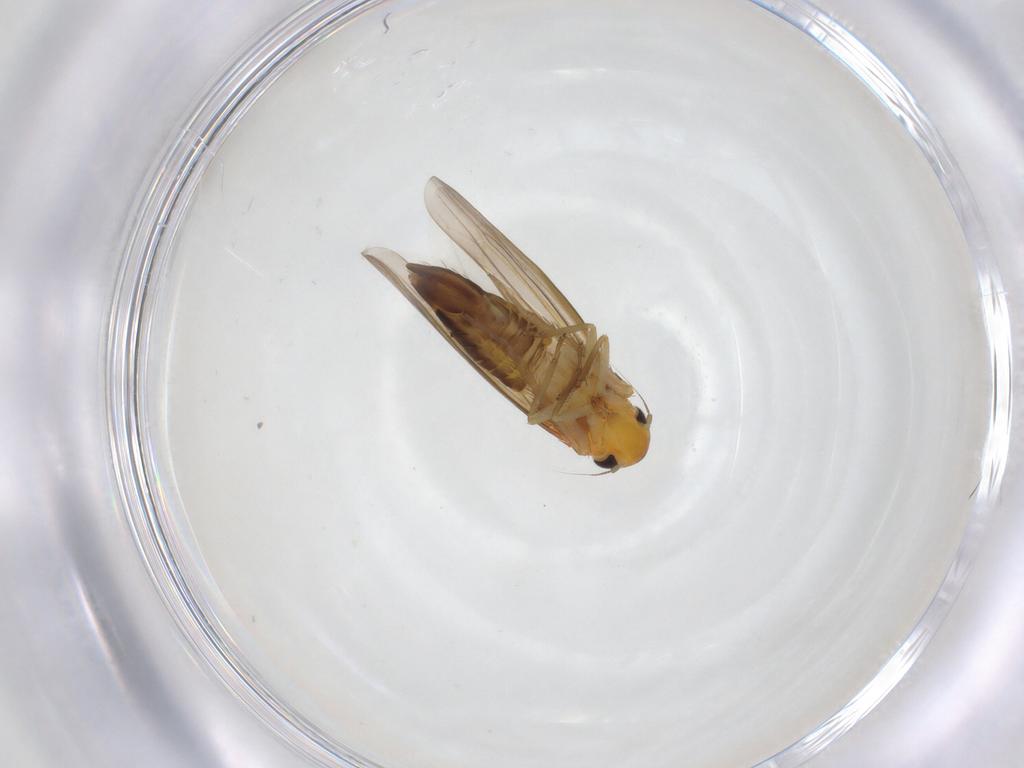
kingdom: Animalia
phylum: Arthropoda
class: Insecta
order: Hemiptera
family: Cicadellidae
